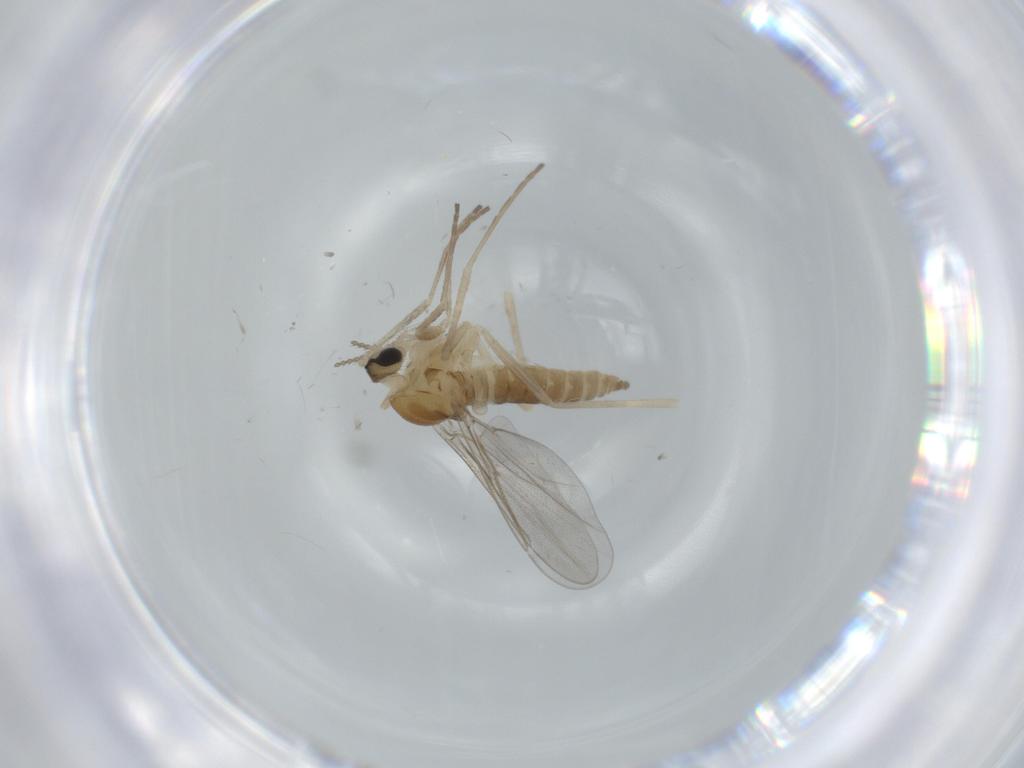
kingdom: Animalia
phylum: Arthropoda
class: Insecta
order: Diptera
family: Cecidomyiidae
